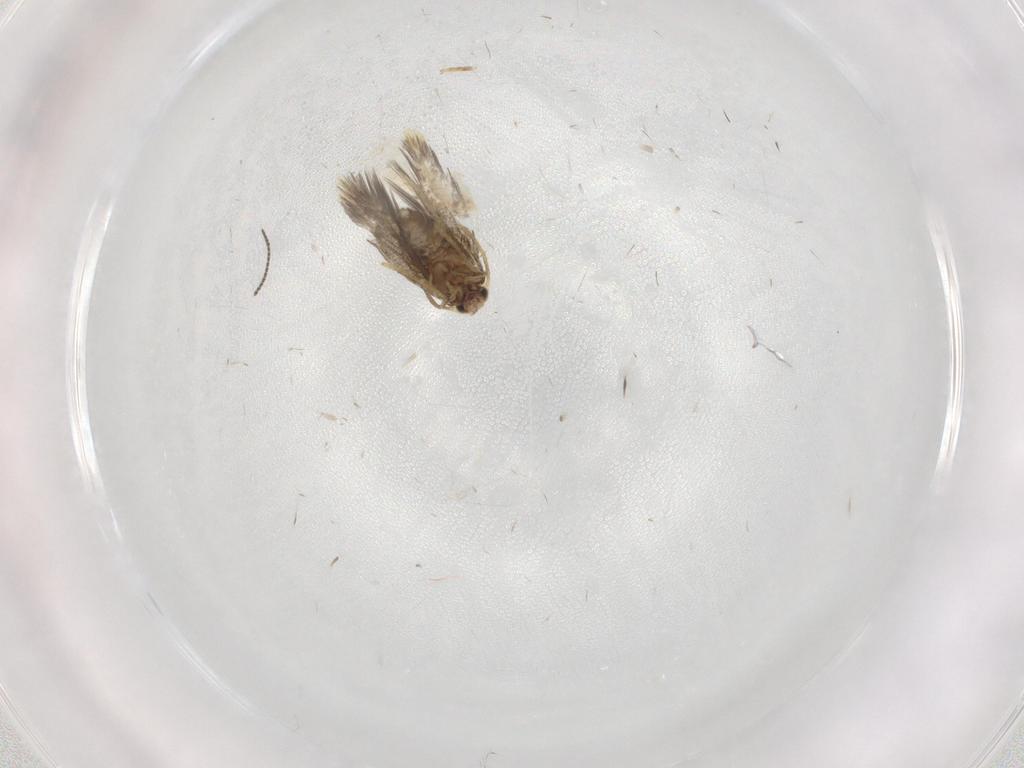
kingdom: Animalia
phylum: Arthropoda
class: Insecta
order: Lepidoptera
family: Copromorphidae
